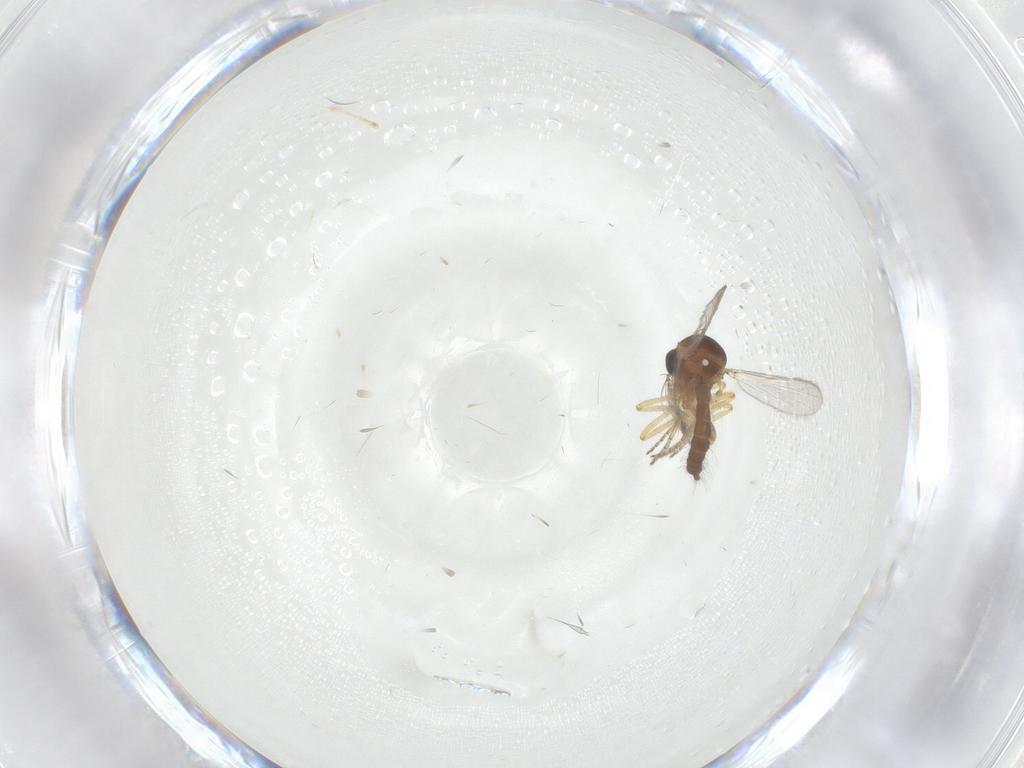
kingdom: Animalia
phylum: Arthropoda
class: Insecta
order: Diptera
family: Ceratopogonidae
